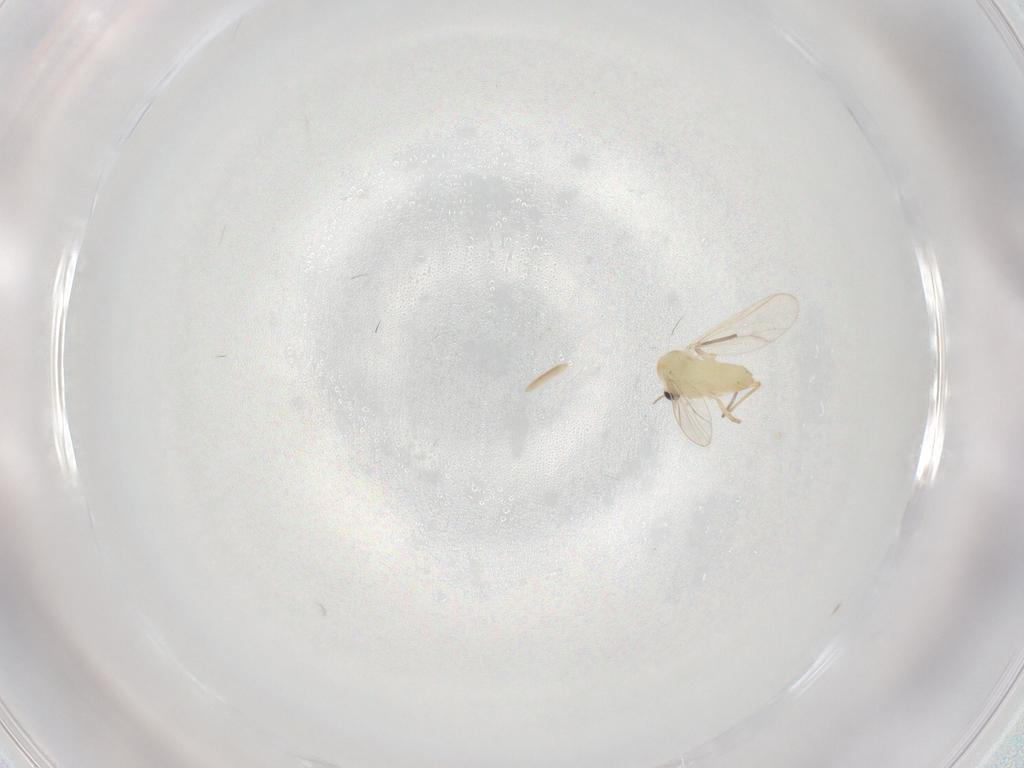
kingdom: Animalia
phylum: Arthropoda
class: Insecta
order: Diptera
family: Chironomidae
